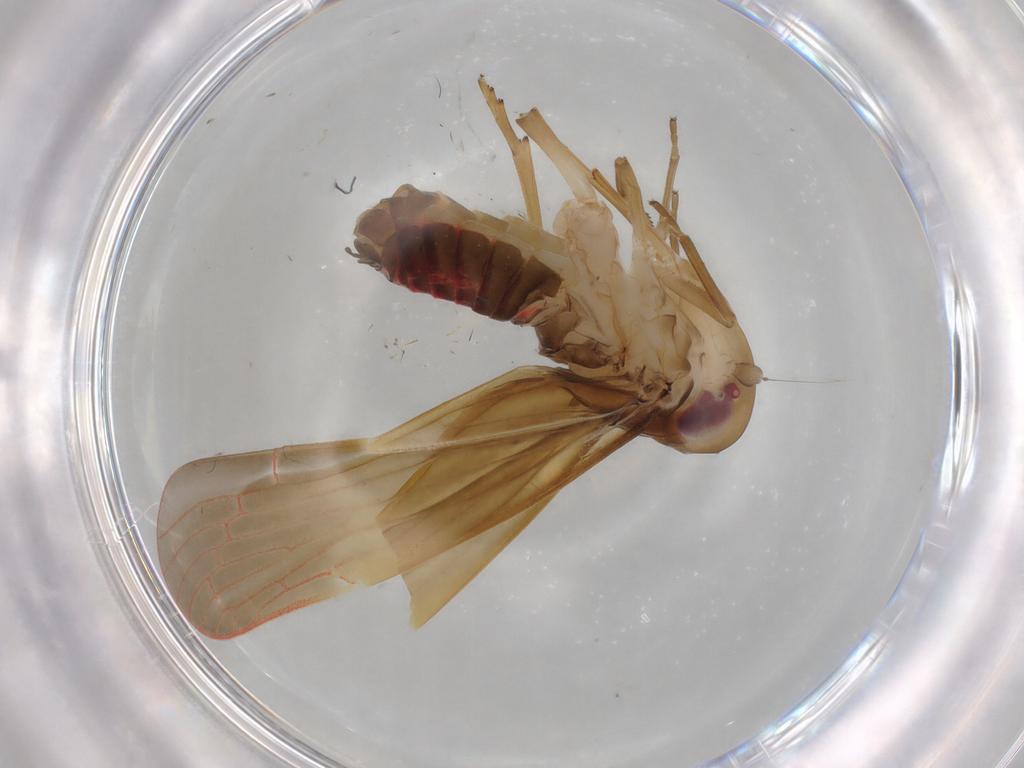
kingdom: Animalia
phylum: Arthropoda
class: Insecta
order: Hemiptera
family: Achilidae
